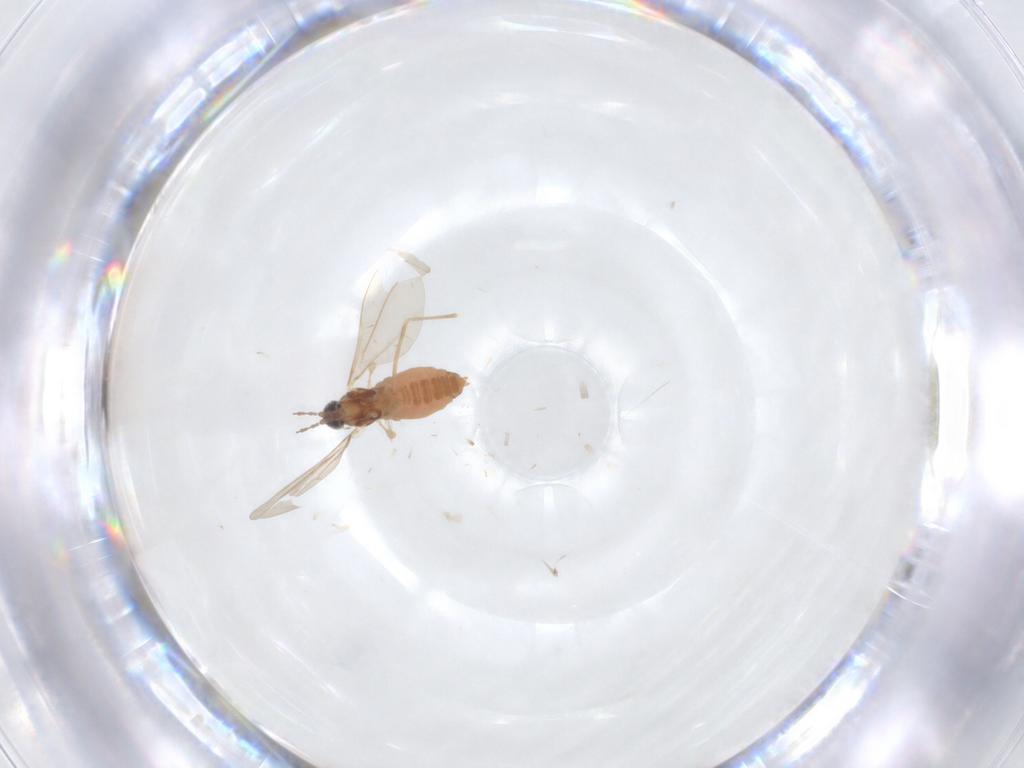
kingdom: Animalia
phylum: Arthropoda
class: Insecta
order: Diptera
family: Cecidomyiidae
